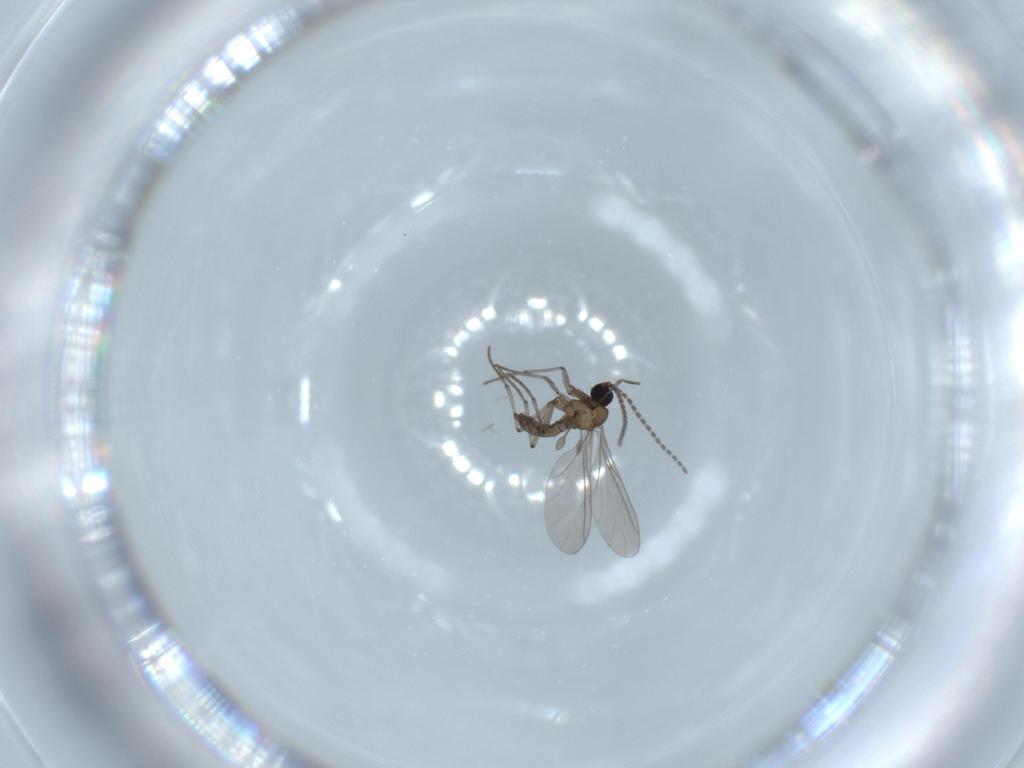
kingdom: Animalia
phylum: Arthropoda
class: Insecta
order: Diptera
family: Sciaridae
